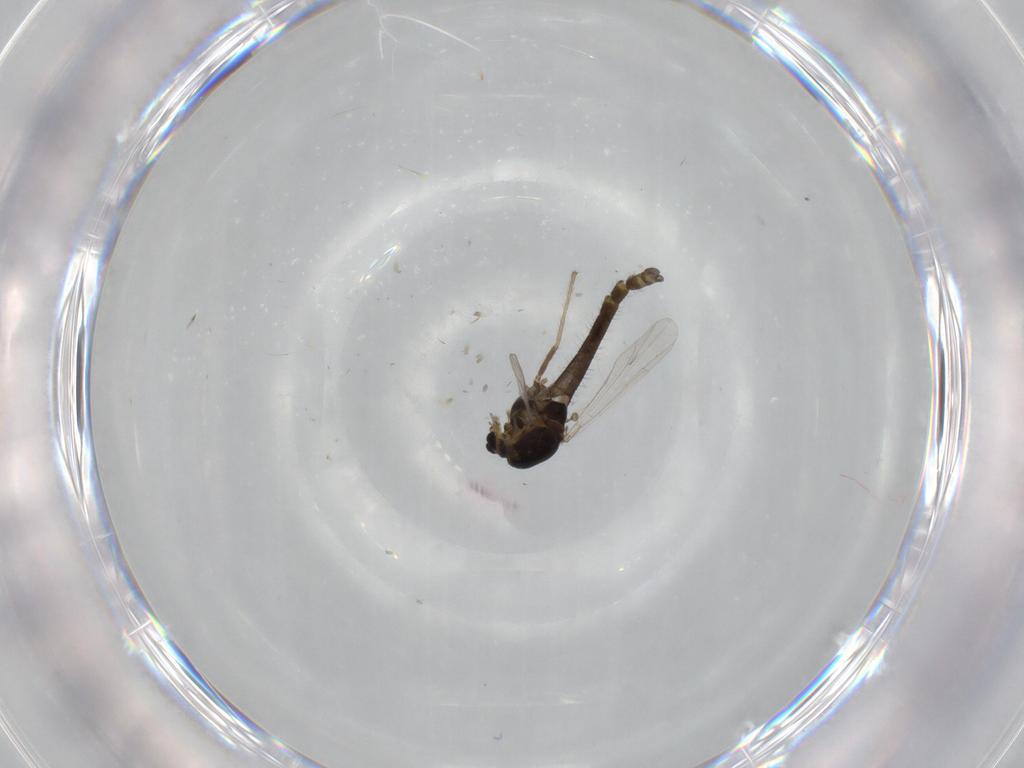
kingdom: Animalia
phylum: Arthropoda
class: Insecta
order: Diptera
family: Chironomidae
